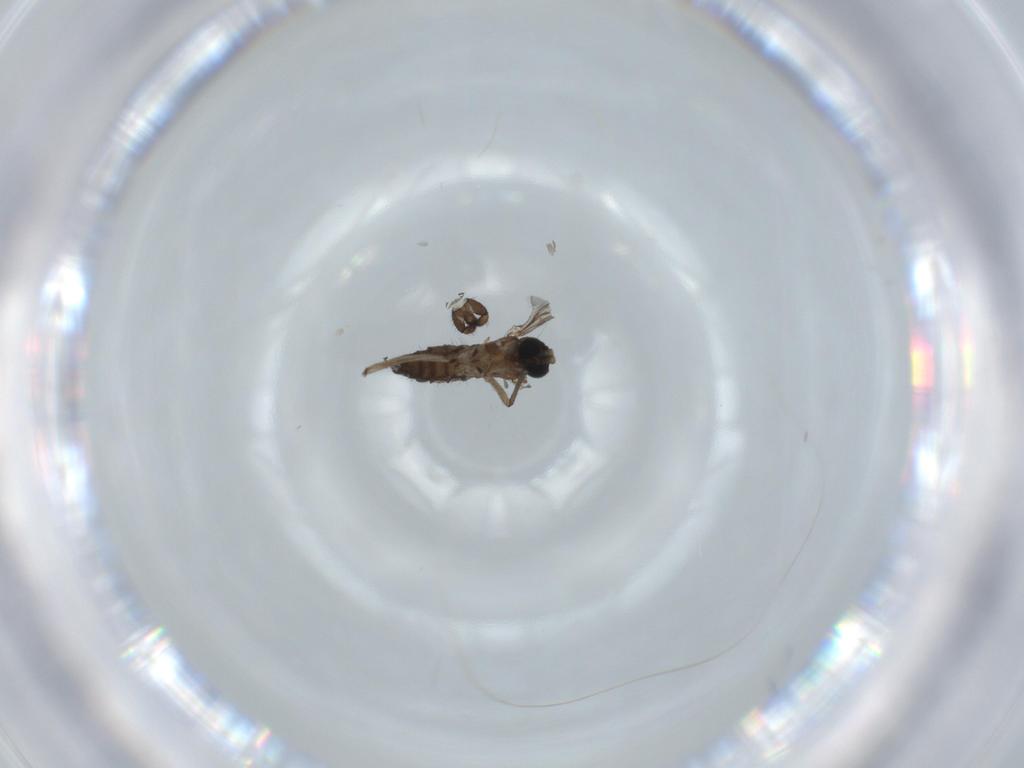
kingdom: Animalia
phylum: Arthropoda
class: Insecta
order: Diptera
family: Sciaridae
